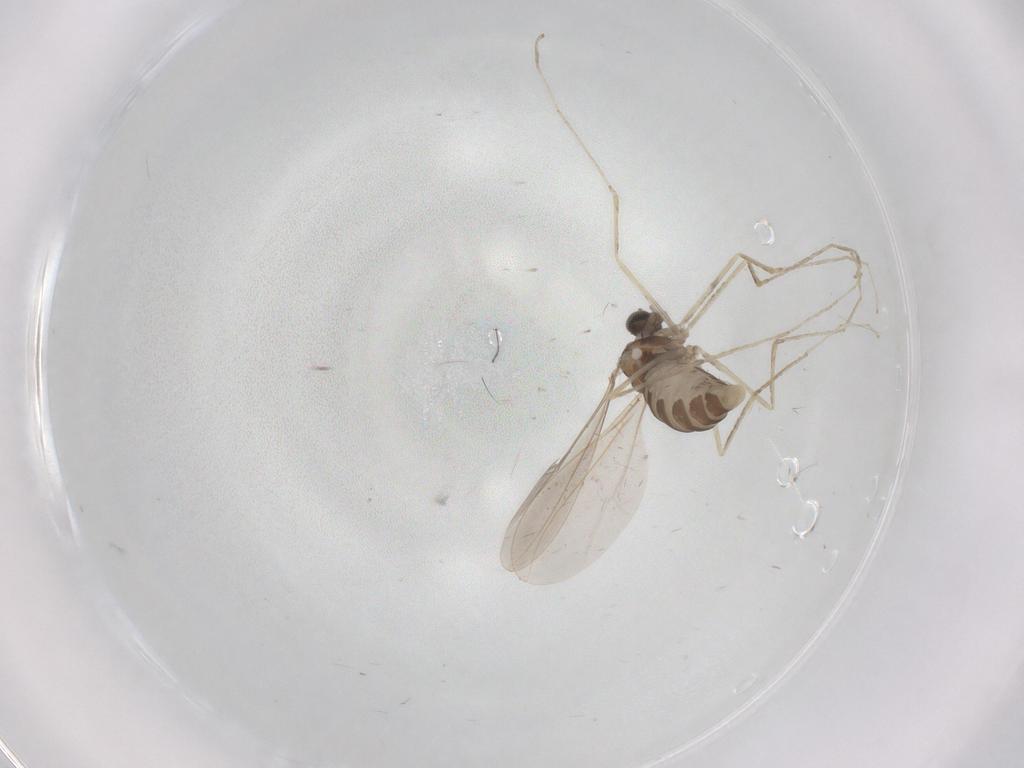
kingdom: Animalia
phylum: Arthropoda
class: Insecta
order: Diptera
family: Cecidomyiidae
